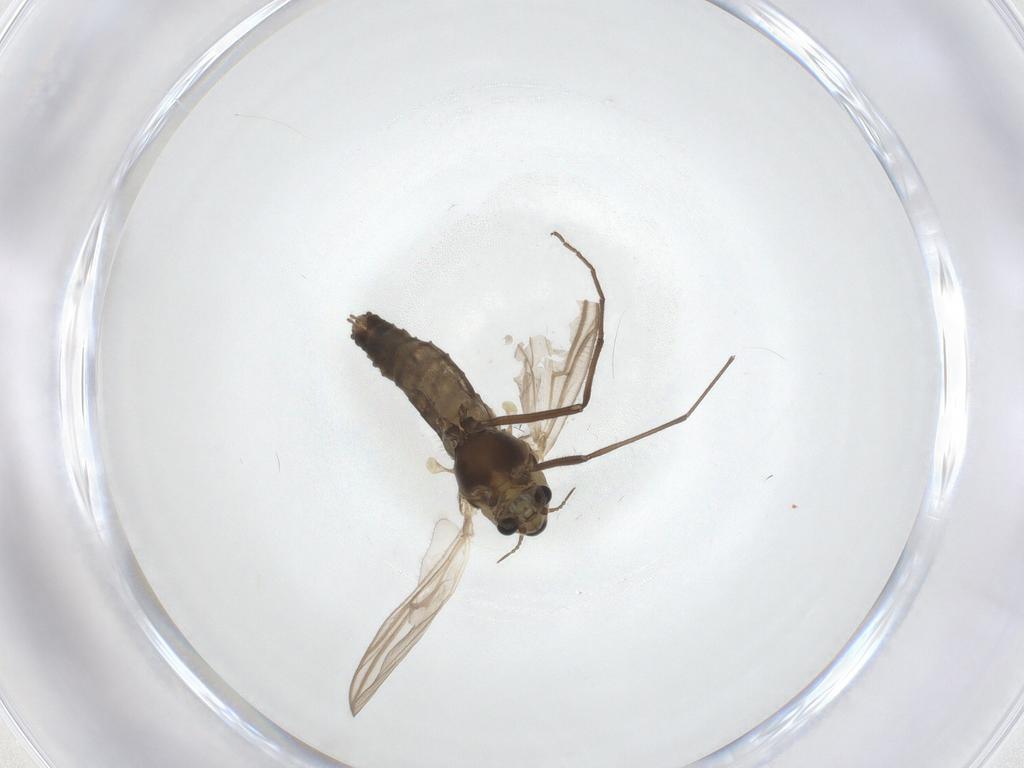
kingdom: Animalia
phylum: Arthropoda
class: Insecta
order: Diptera
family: Chironomidae
